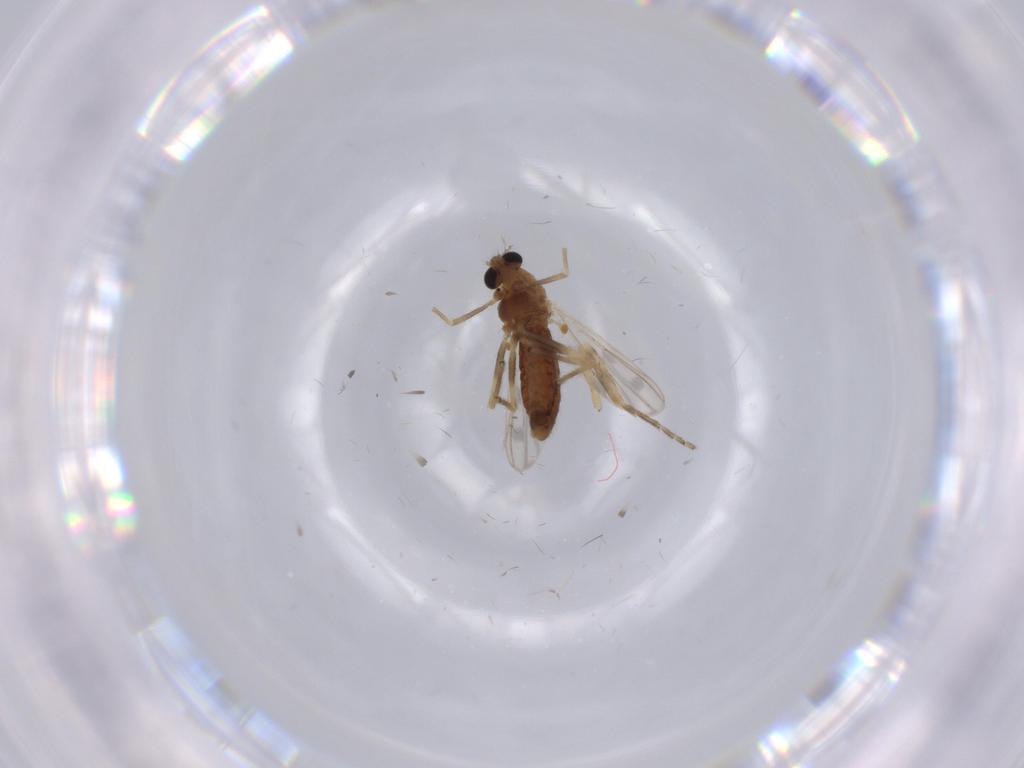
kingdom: Animalia
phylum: Arthropoda
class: Insecta
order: Diptera
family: Chironomidae
